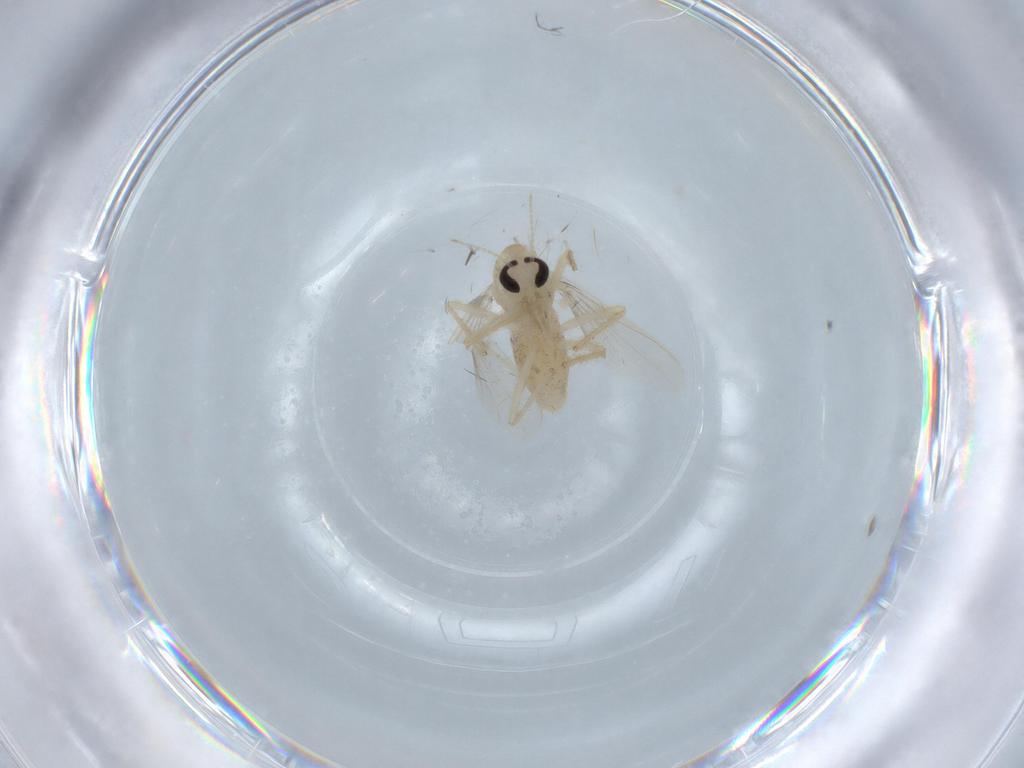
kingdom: Animalia
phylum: Arthropoda
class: Insecta
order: Diptera
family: Chironomidae
